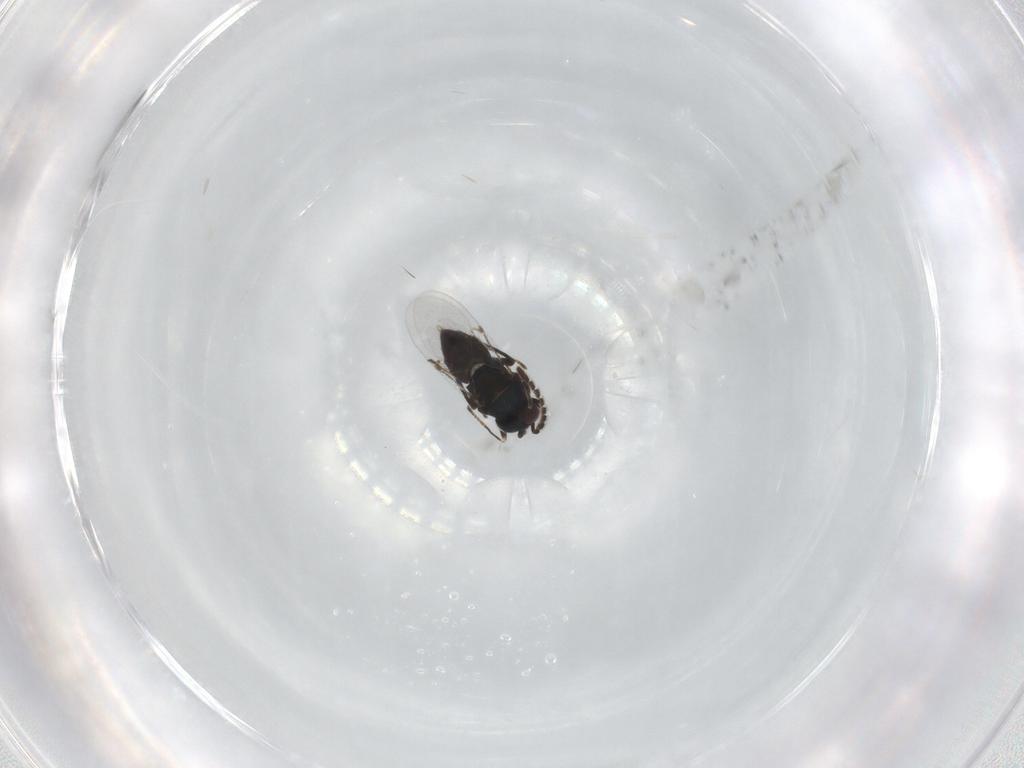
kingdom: Animalia
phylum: Arthropoda
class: Insecta
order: Hymenoptera
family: Encyrtidae
